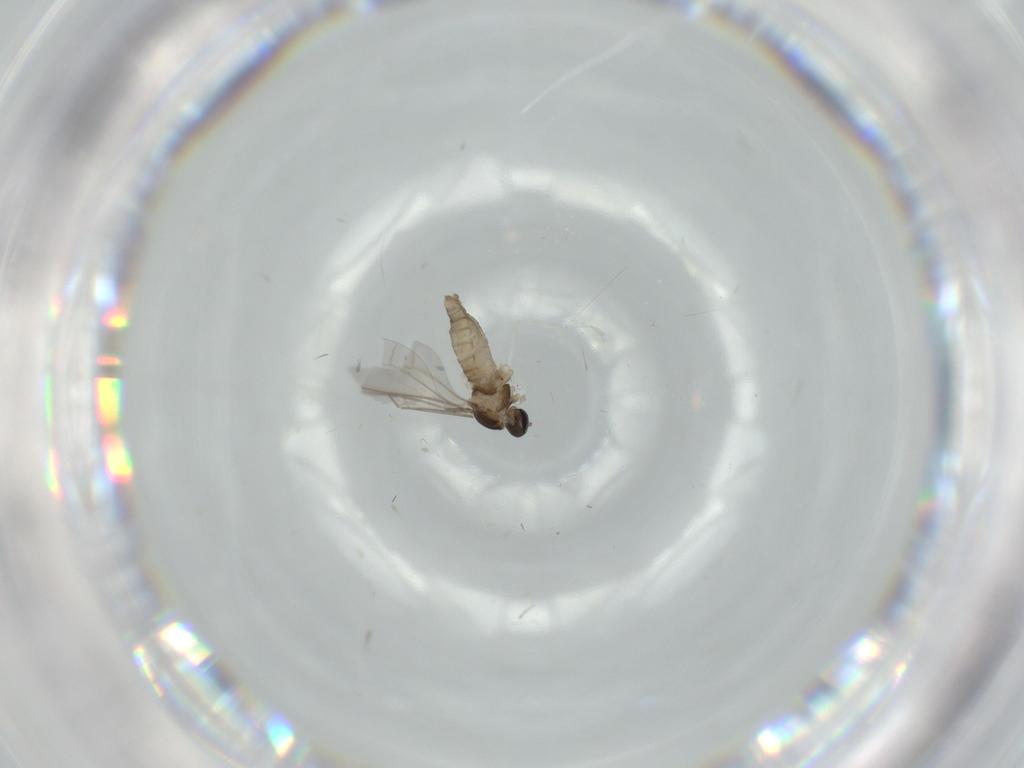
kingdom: Animalia
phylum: Arthropoda
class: Insecta
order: Diptera
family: Cecidomyiidae
